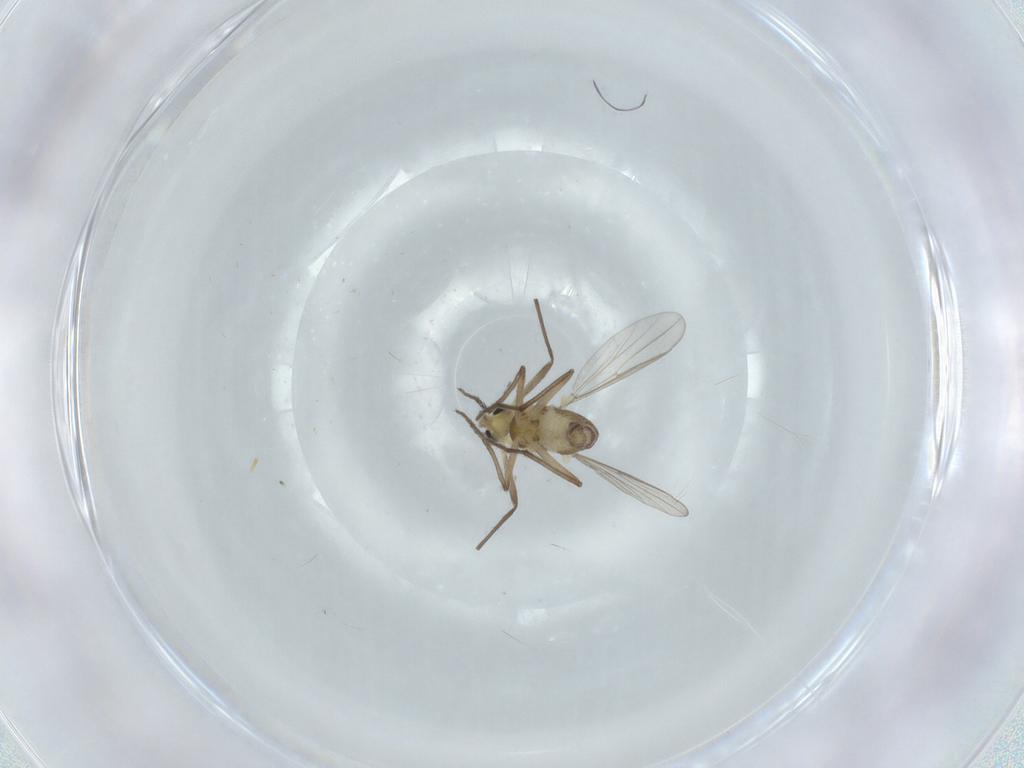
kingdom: Animalia
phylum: Arthropoda
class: Insecta
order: Diptera
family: Chironomidae
